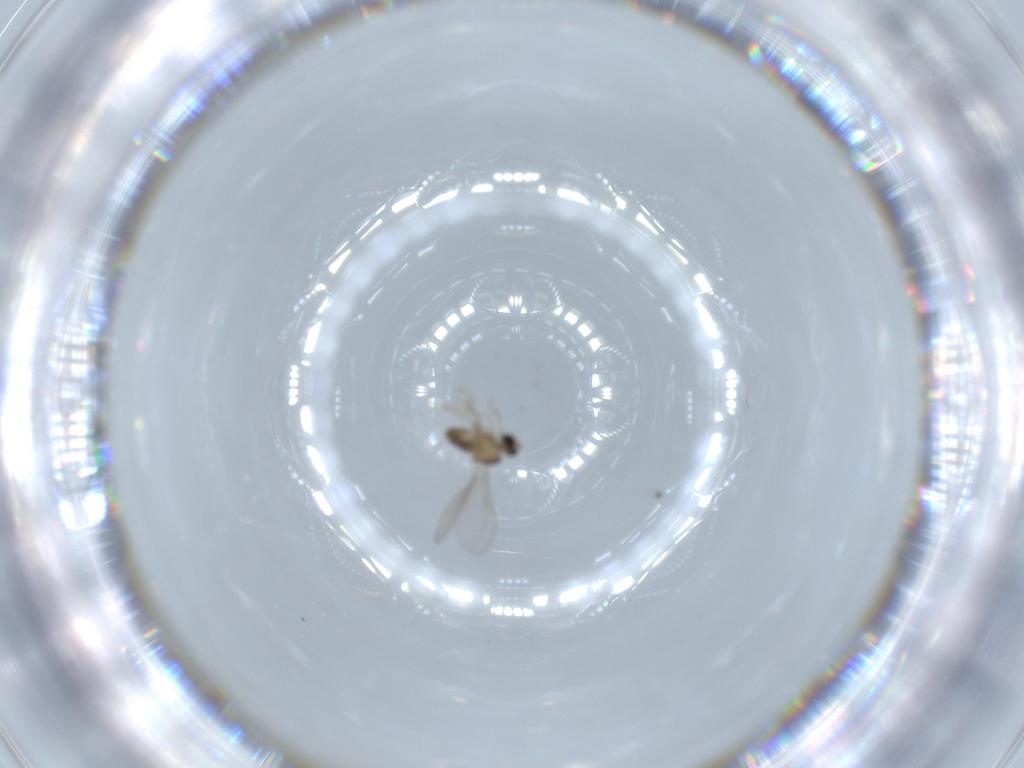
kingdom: Animalia
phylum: Arthropoda
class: Insecta
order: Diptera
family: Cecidomyiidae
